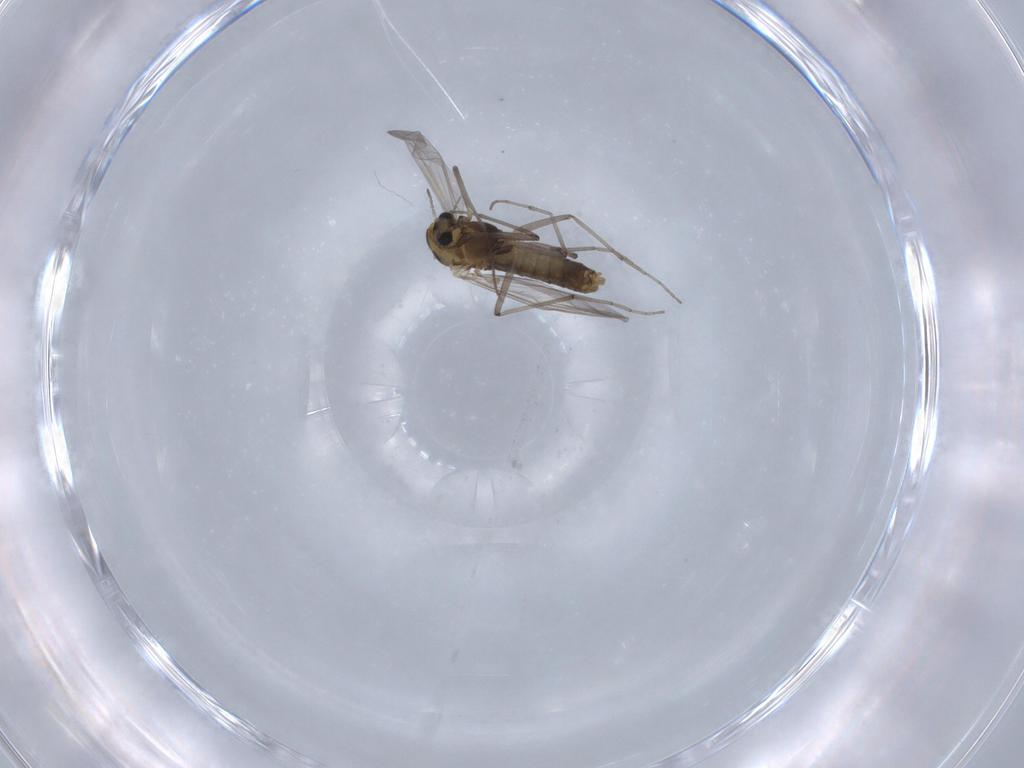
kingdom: Animalia
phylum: Arthropoda
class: Insecta
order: Diptera
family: Chironomidae
